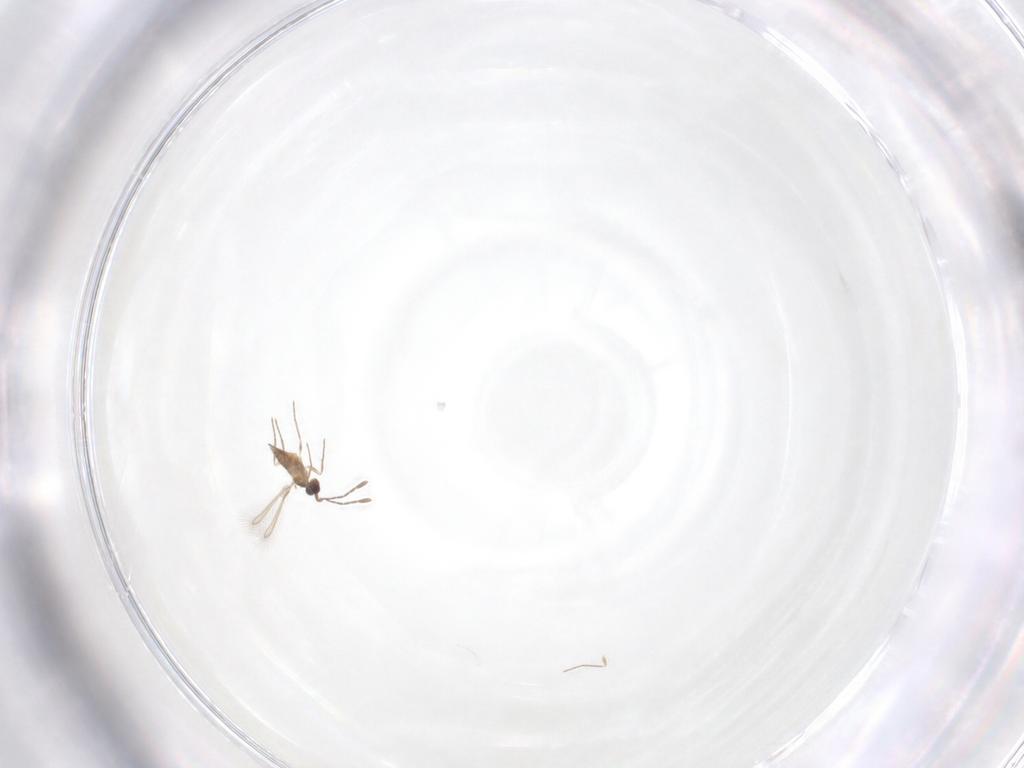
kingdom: Animalia
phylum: Arthropoda
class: Insecta
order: Hymenoptera
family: Mymaridae
